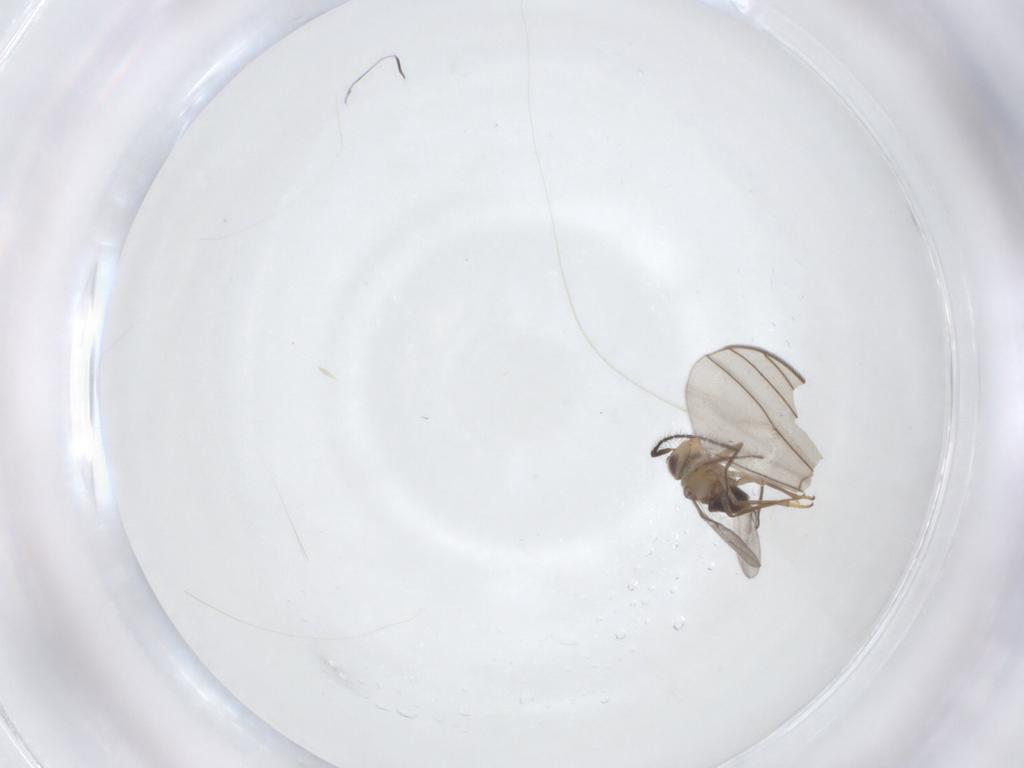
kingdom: Animalia
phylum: Arthropoda
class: Insecta
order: Diptera
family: Dolichopodidae
